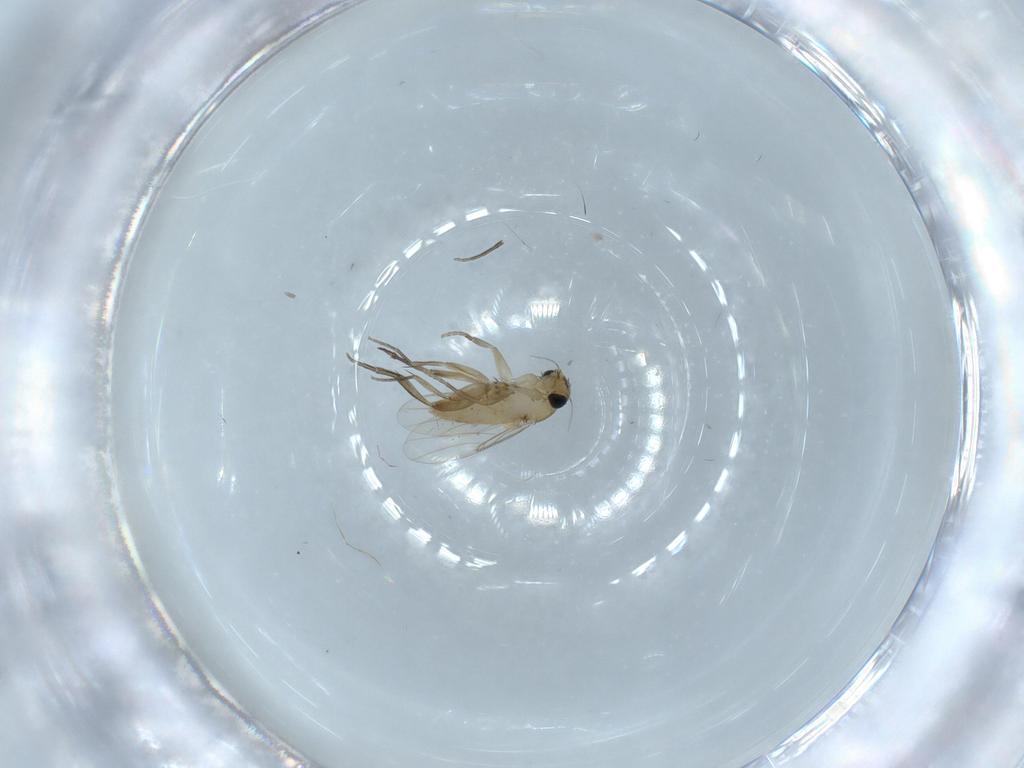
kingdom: Animalia
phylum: Arthropoda
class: Insecta
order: Diptera
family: Phoridae
